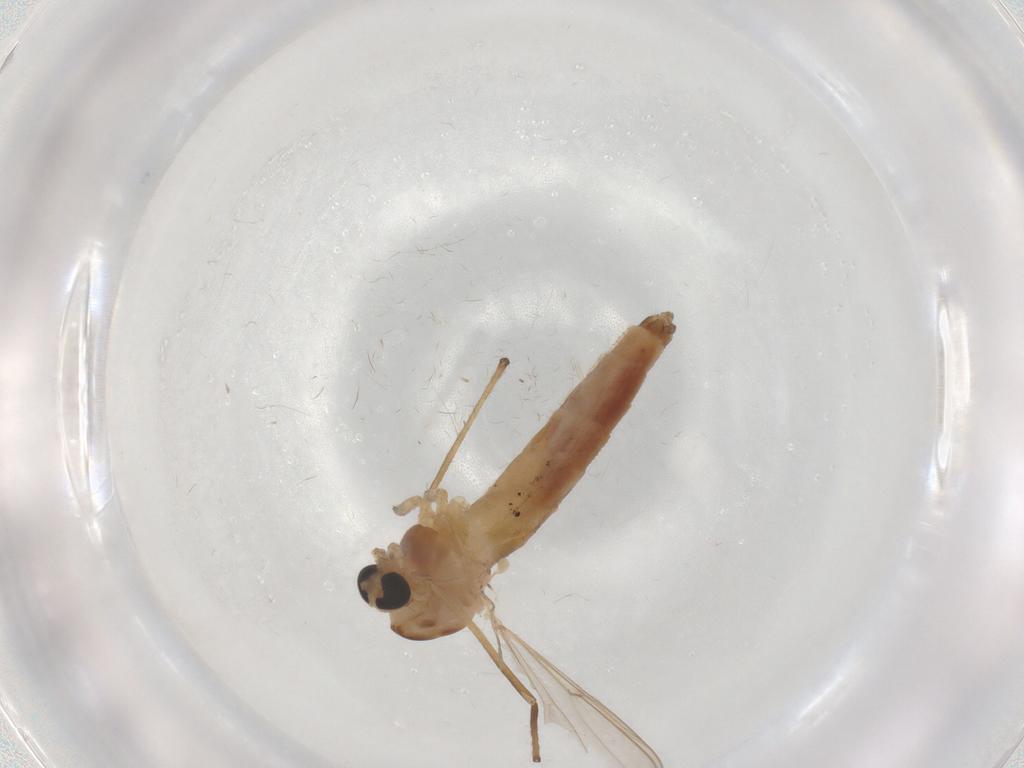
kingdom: Animalia
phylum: Arthropoda
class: Insecta
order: Diptera
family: Chironomidae
